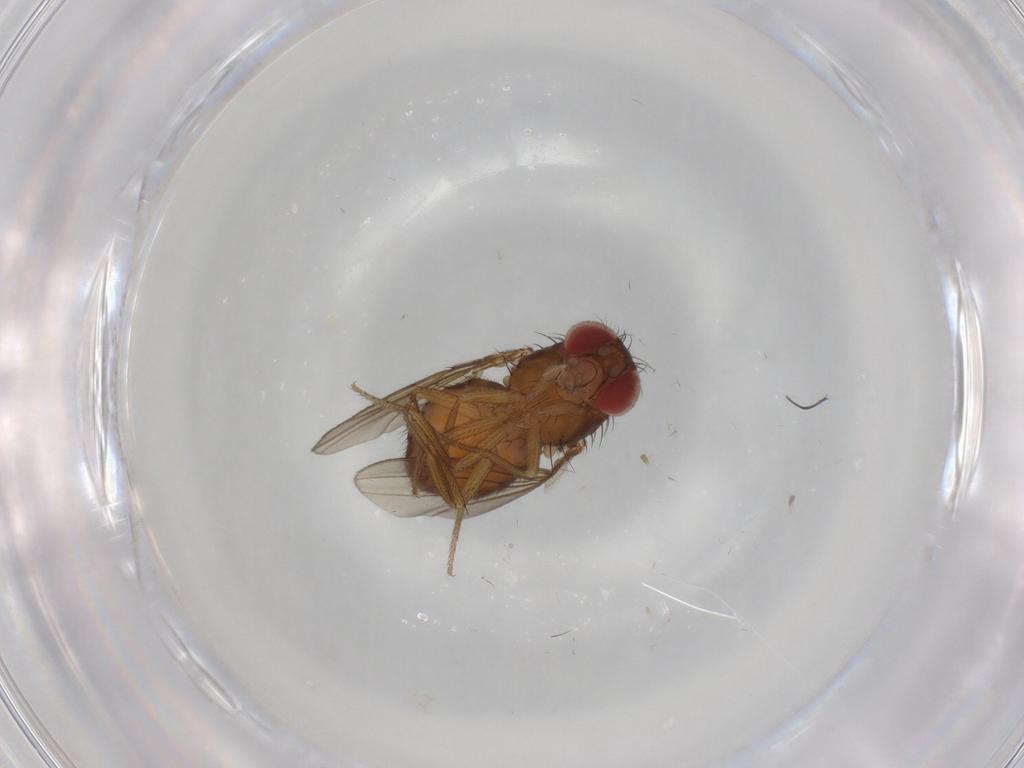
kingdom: Animalia
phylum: Arthropoda
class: Insecta
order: Diptera
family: Drosophilidae
